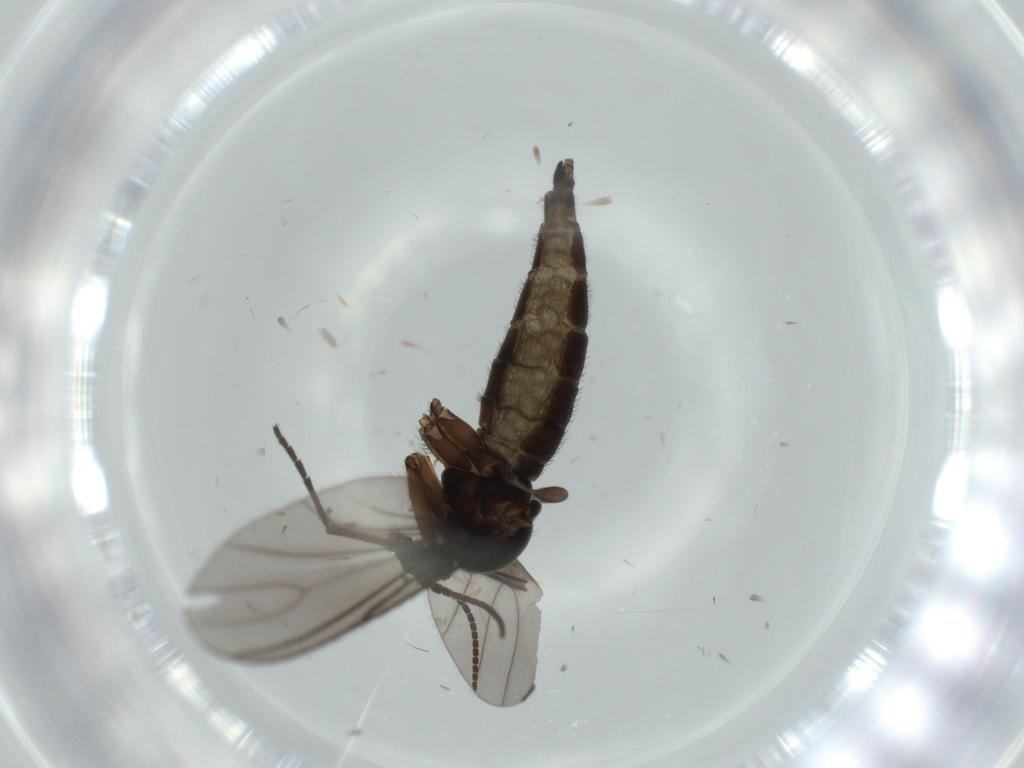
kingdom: Animalia
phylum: Arthropoda
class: Insecta
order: Diptera
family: Sciaridae
